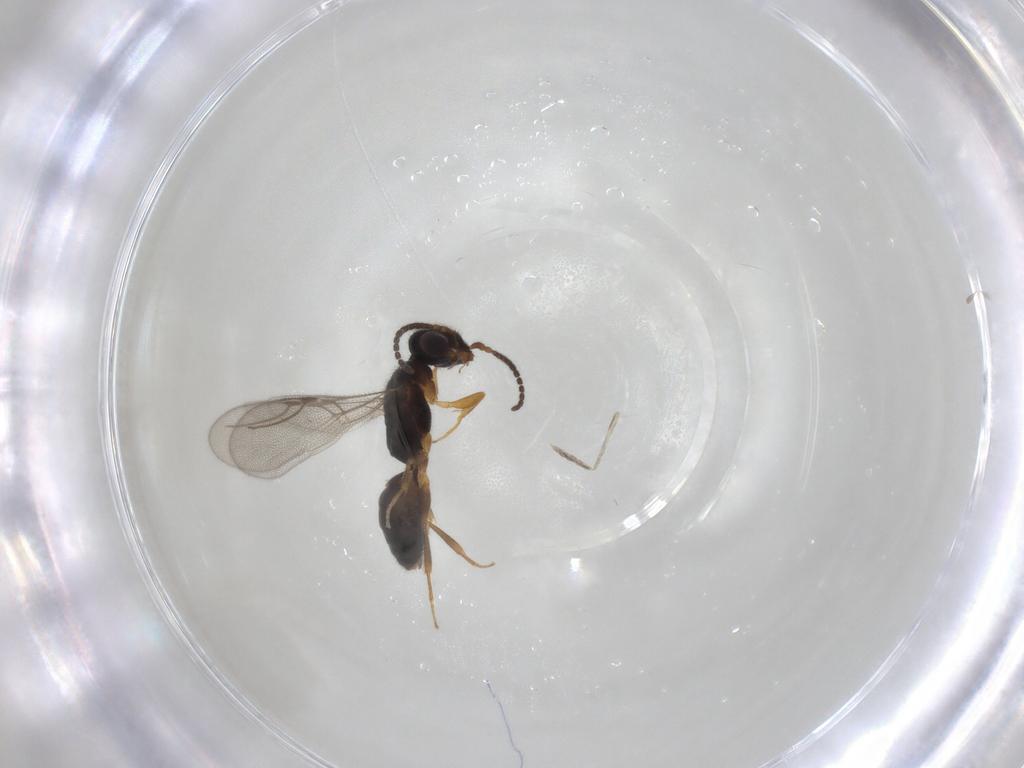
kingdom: Animalia
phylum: Arthropoda
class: Insecta
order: Hymenoptera
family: Bethylidae
